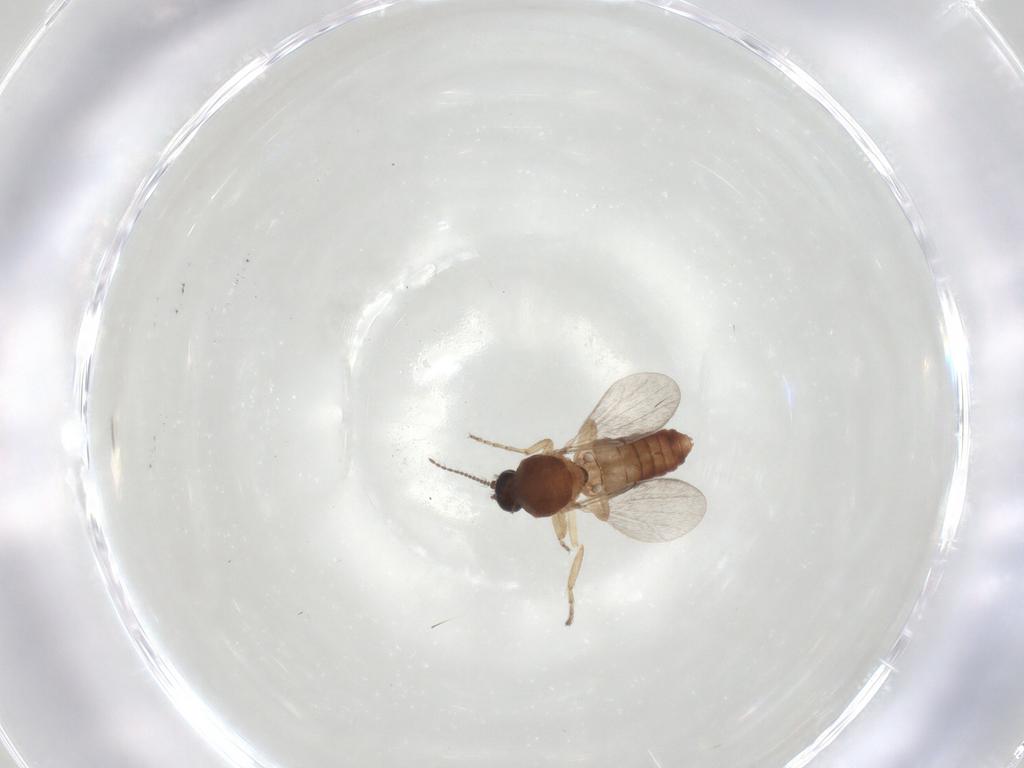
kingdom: Animalia
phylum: Arthropoda
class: Insecta
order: Diptera
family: Ceratopogonidae
